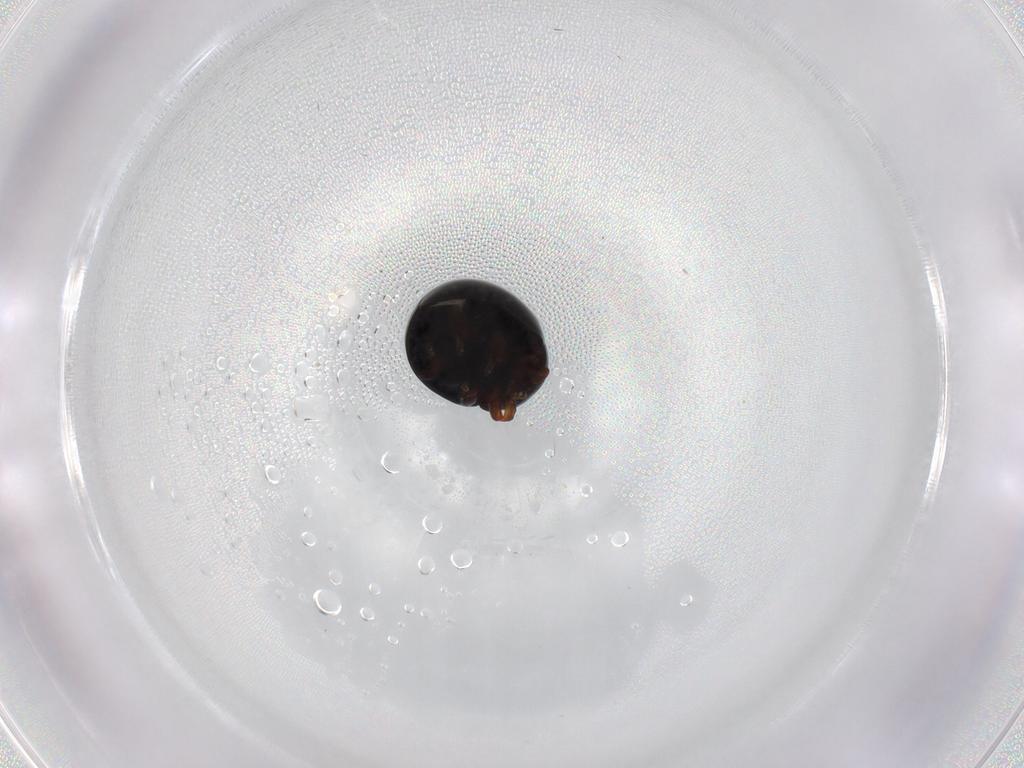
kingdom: Animalia
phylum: Arthropoda
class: Insecta
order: Coleoptera
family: Coccinellidae
